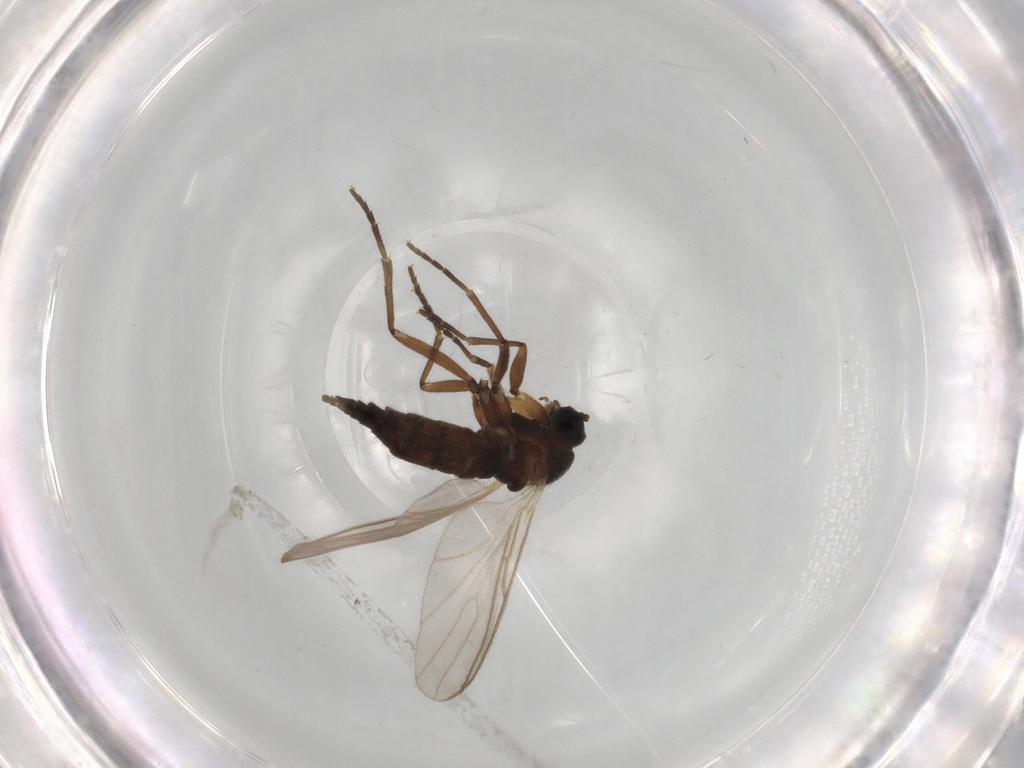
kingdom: Animalia
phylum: Arthropoda
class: Insecta
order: Diptera
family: Sciaridae
